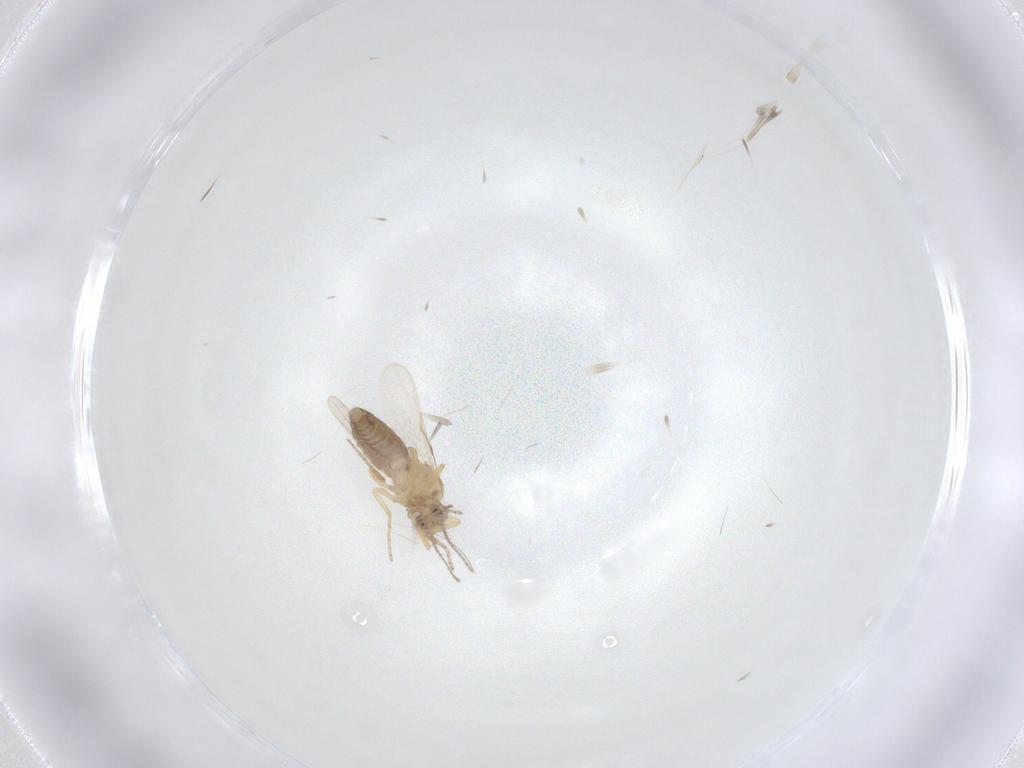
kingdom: Animalia
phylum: Arthropoda
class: Insecta
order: Diptera
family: Ceratopogonidae
